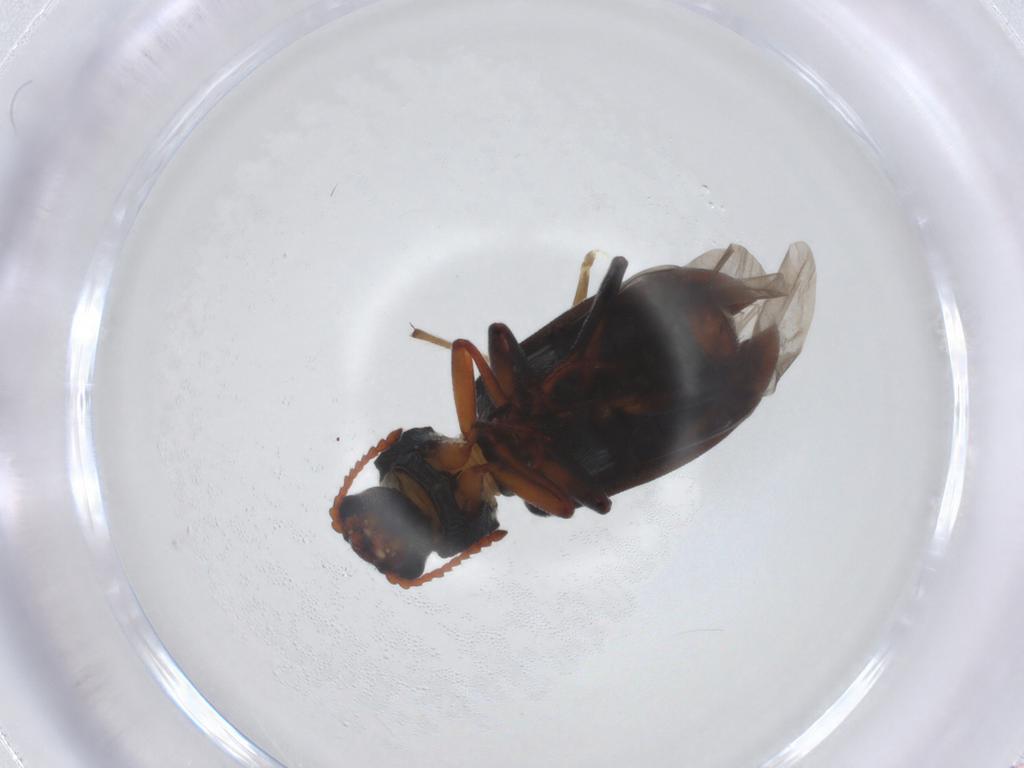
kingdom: Animalia
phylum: Arthropoda
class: Insecta
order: Coleoptera
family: Melyridae
